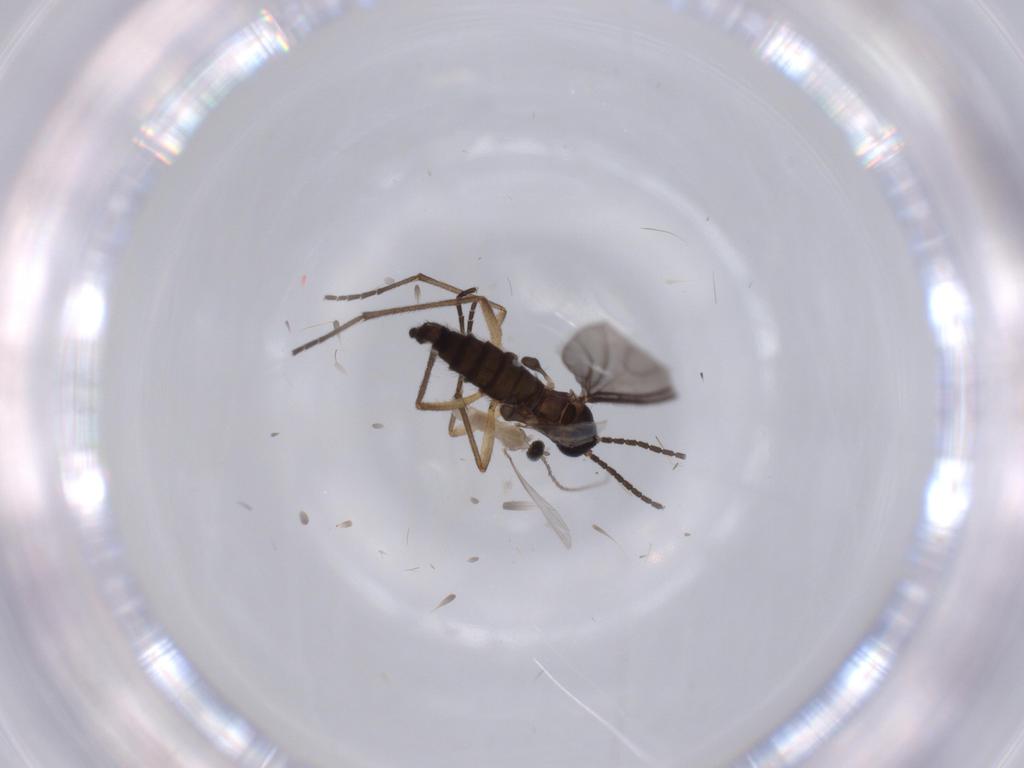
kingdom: Animalia
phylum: Arthropoda
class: Insecta
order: Diptera
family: Cecidomyiidae
